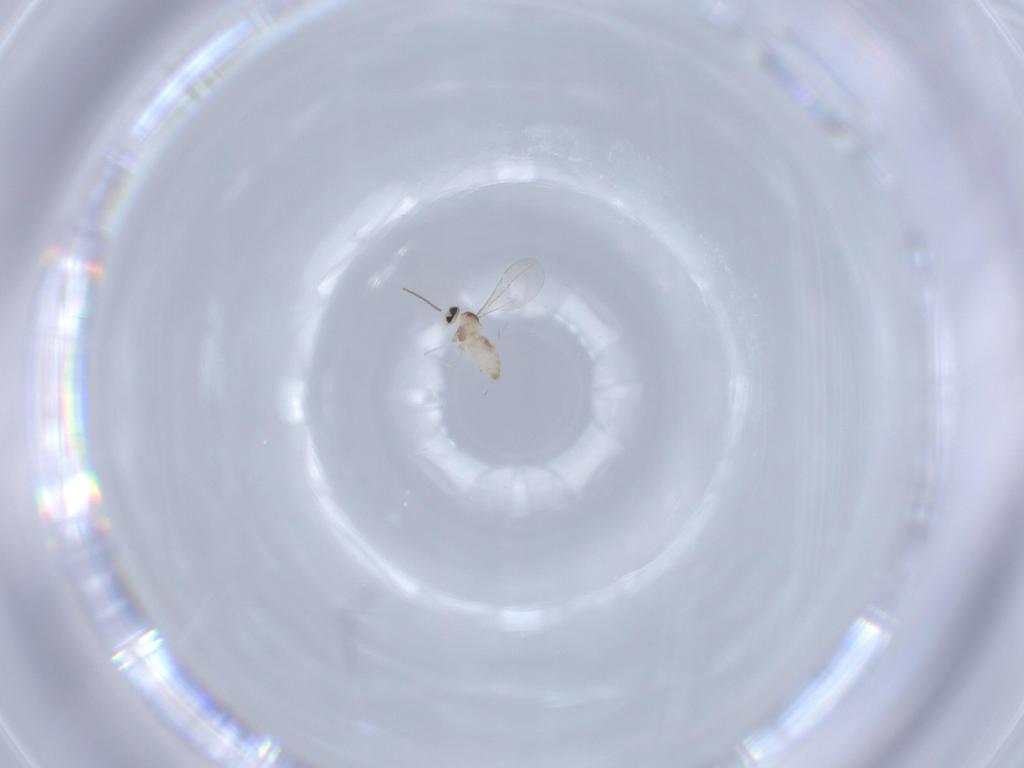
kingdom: Animalia
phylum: Arthropoda
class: Insecta
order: Diptera
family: Cecidomyiidae
